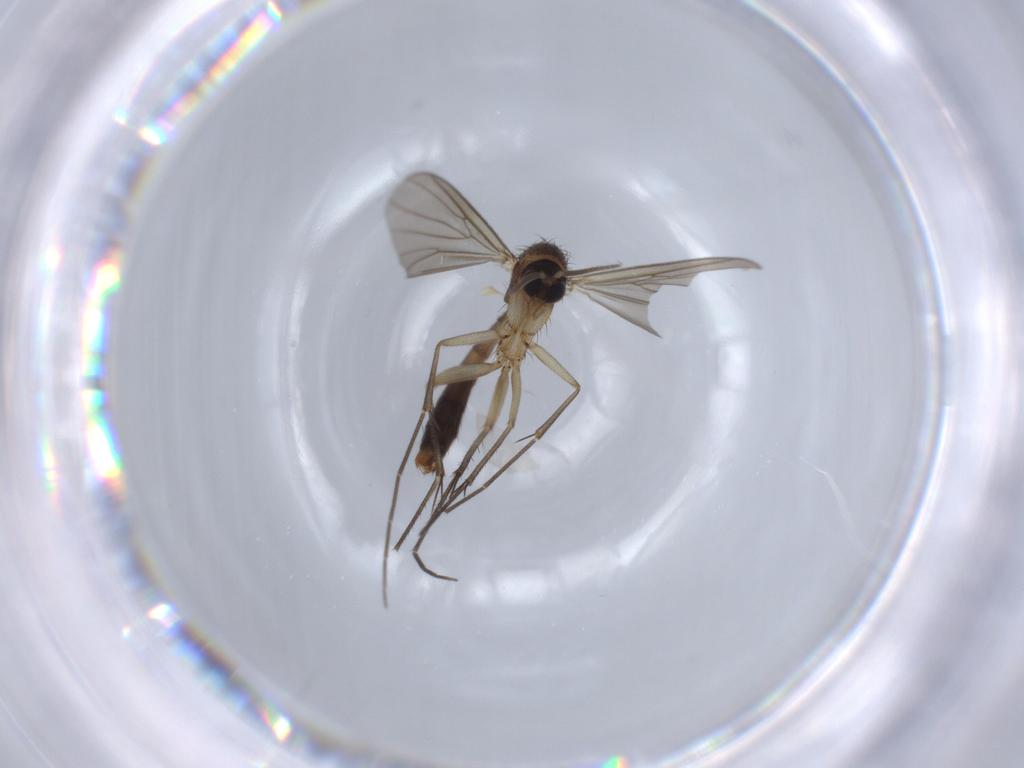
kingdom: Animalia
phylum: Arthropoda
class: Insecta
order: Diptera
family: Mycetophilidae
